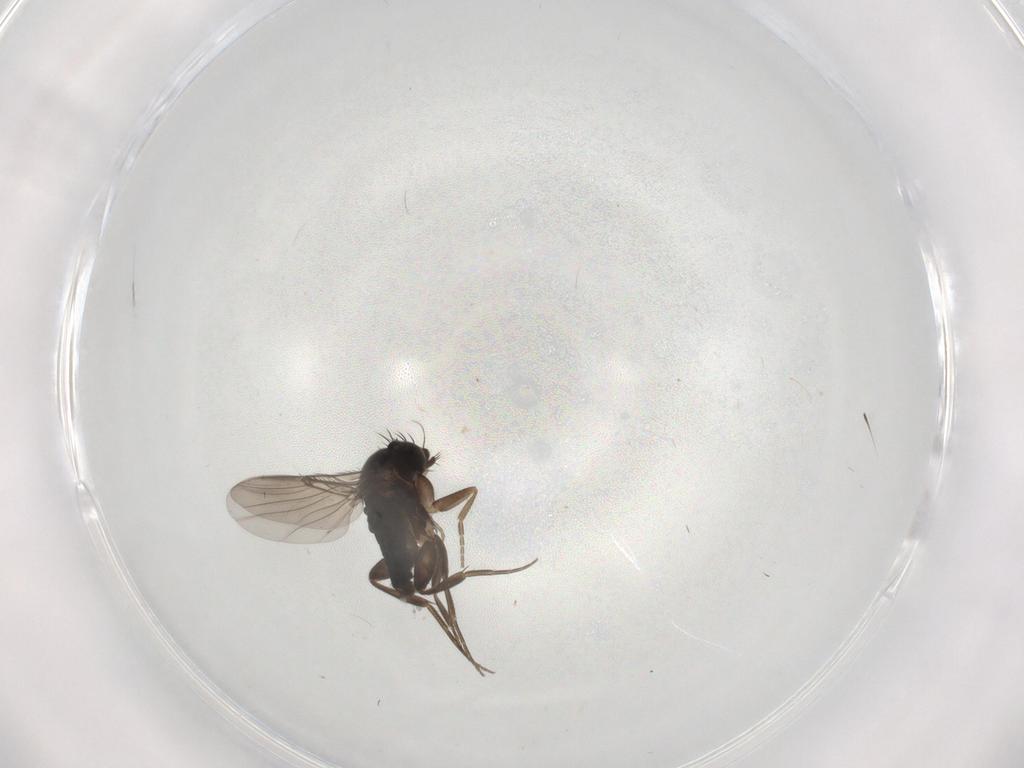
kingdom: Animalia
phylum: Arthropoda
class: Insecta
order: Diptera
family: Phoridae
